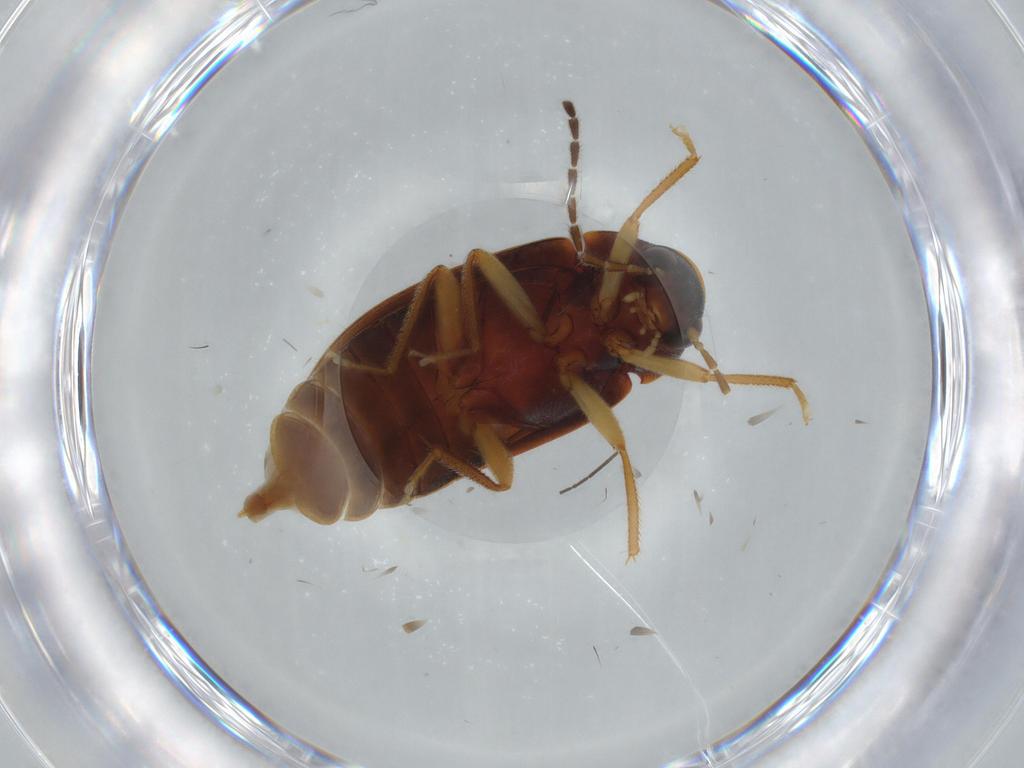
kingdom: Animalia
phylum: Arthropoda
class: Insecta
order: Coleoptera
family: Ptilodactylidae
